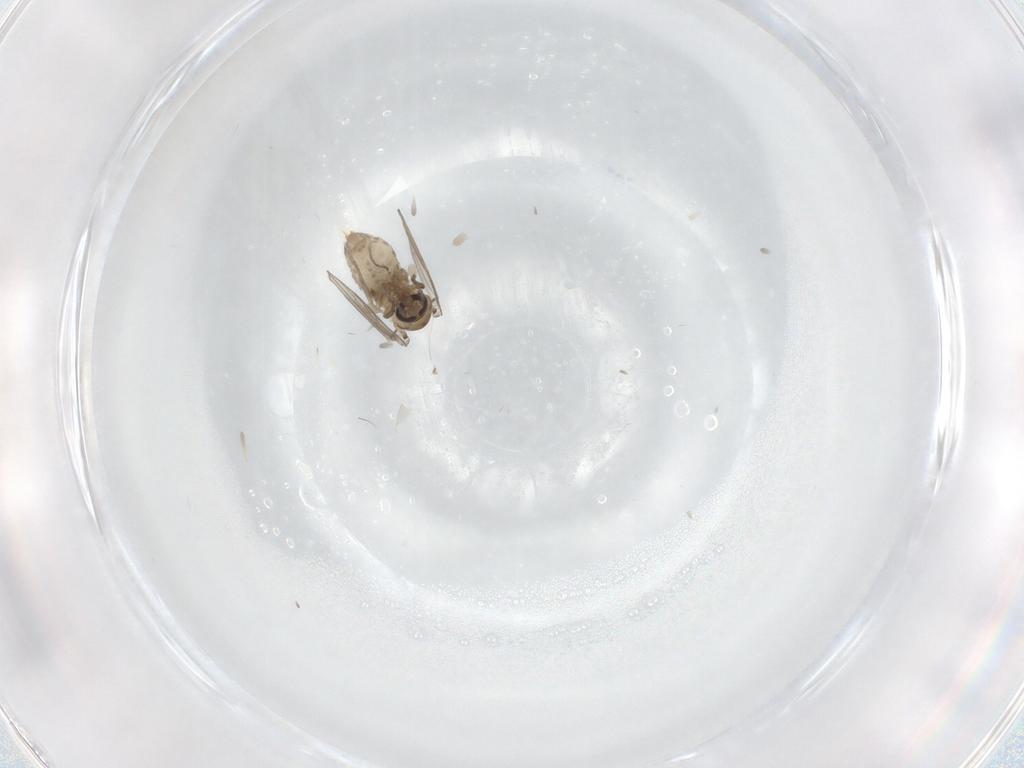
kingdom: Animalia
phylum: Arthropoda
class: Insecta
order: Diptera
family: Psychodidae
